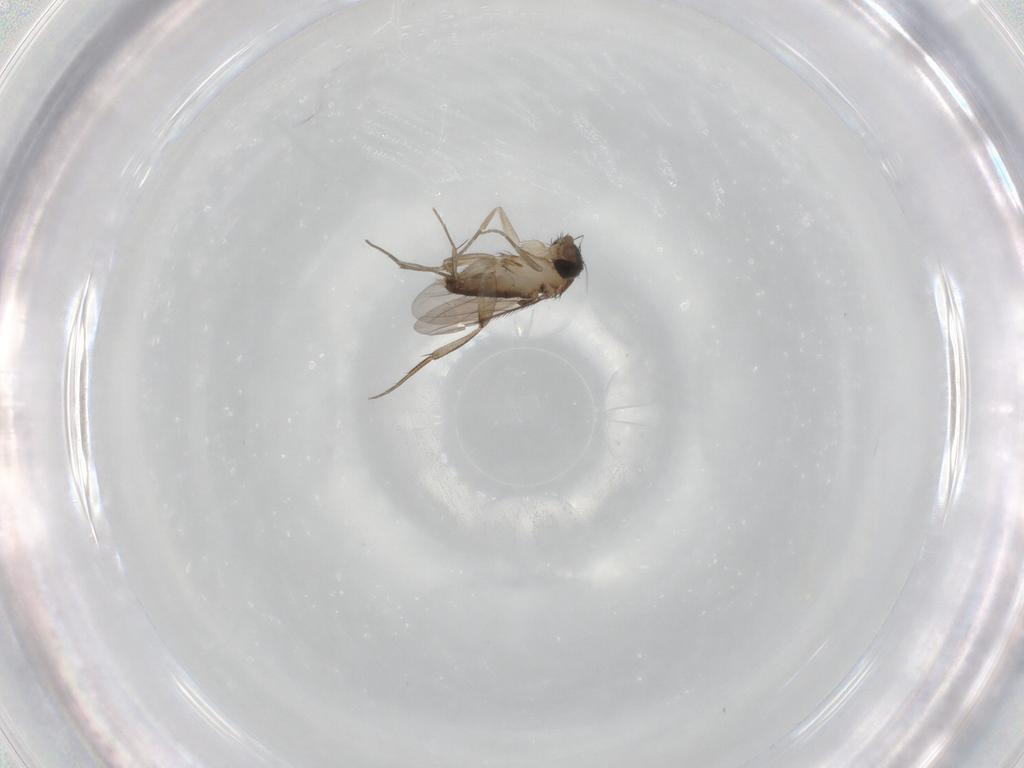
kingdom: Animalia
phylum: Arthropoda
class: Insecta
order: Diptera
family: Phoridae
